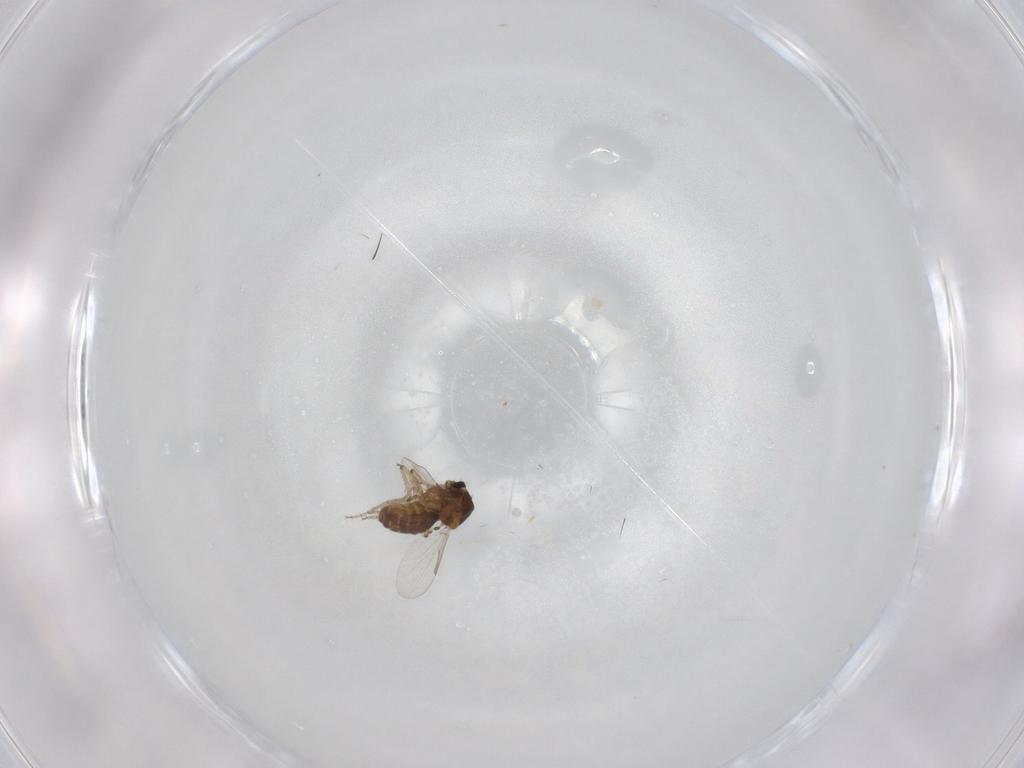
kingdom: Animalia
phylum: Arthropoda
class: Insecta
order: Diptera
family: Ceratopogonidae
